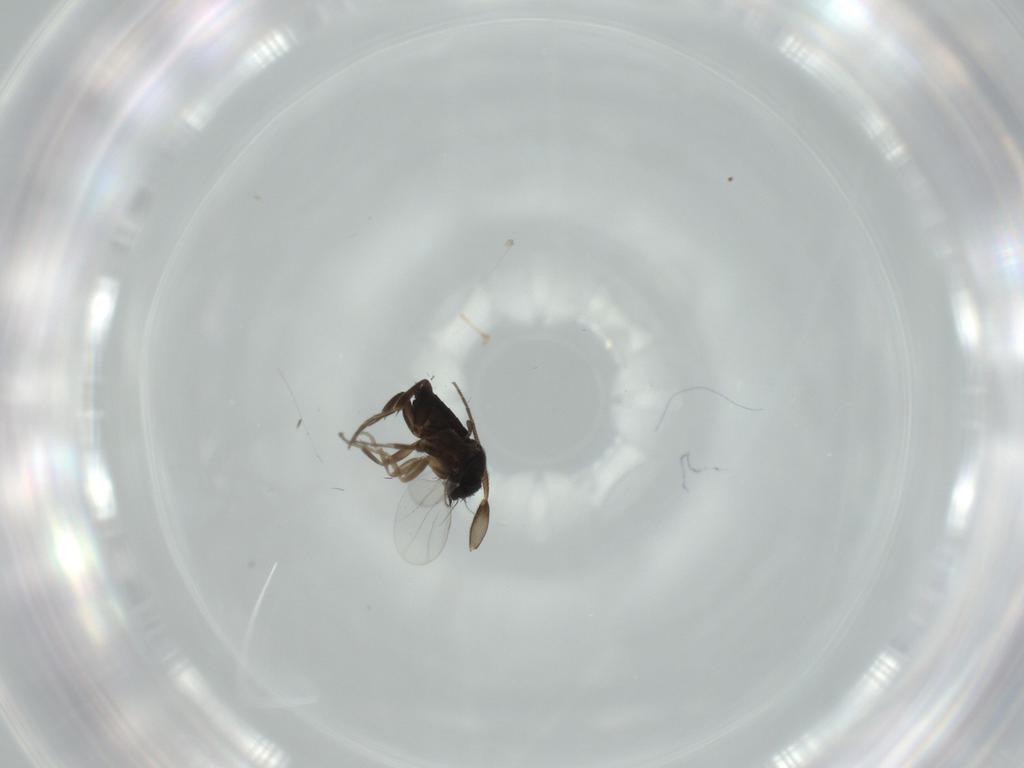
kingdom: Animalia
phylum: Arthropoda
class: Insecta
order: Diptera
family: Phoridae
